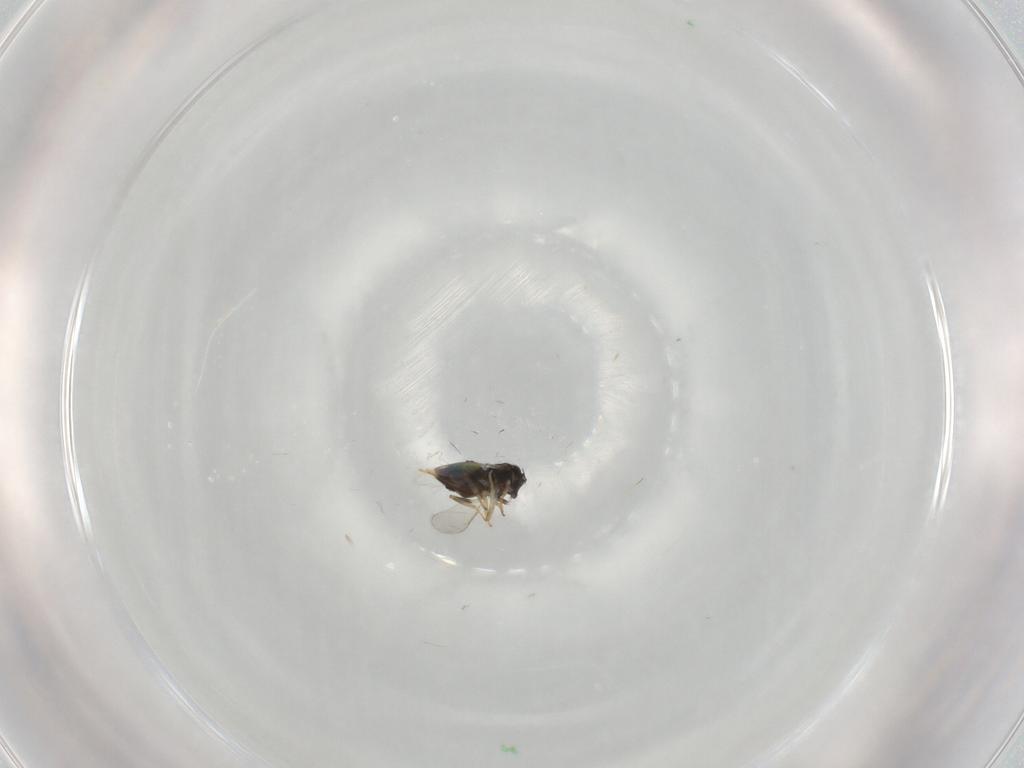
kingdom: Animalia
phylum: Arthropoda
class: Insecta
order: Hymenoptera
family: Aphelinidae
